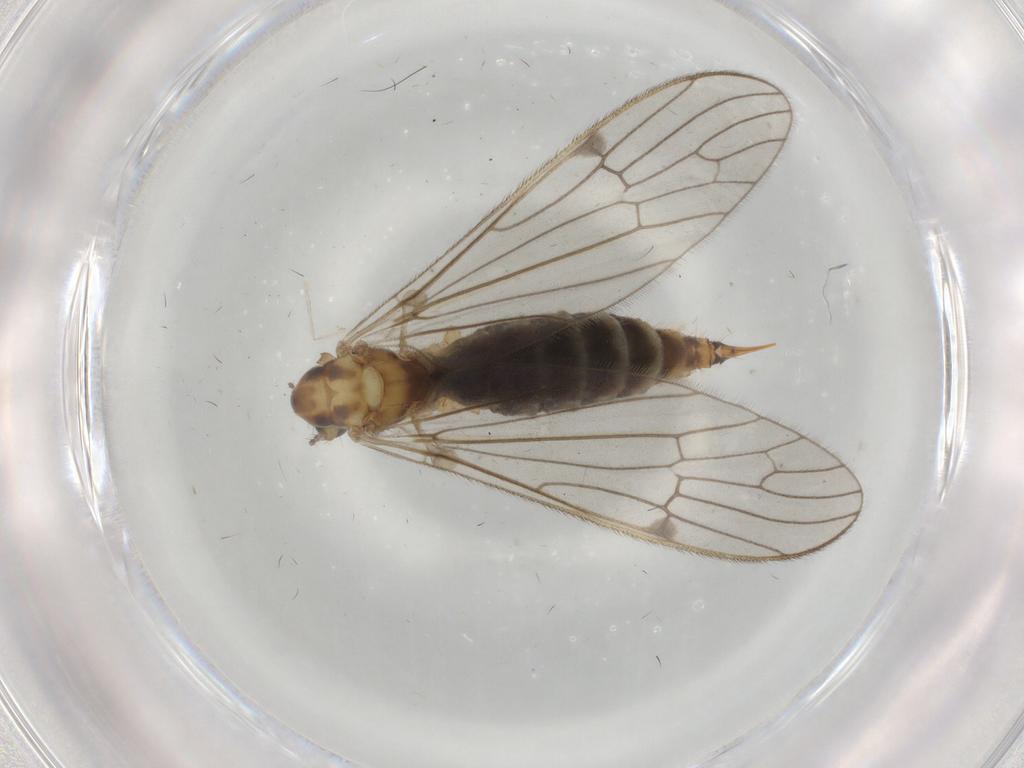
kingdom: Animalia
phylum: Arthropoda
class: Insecta
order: Diptera
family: Limoniidae
